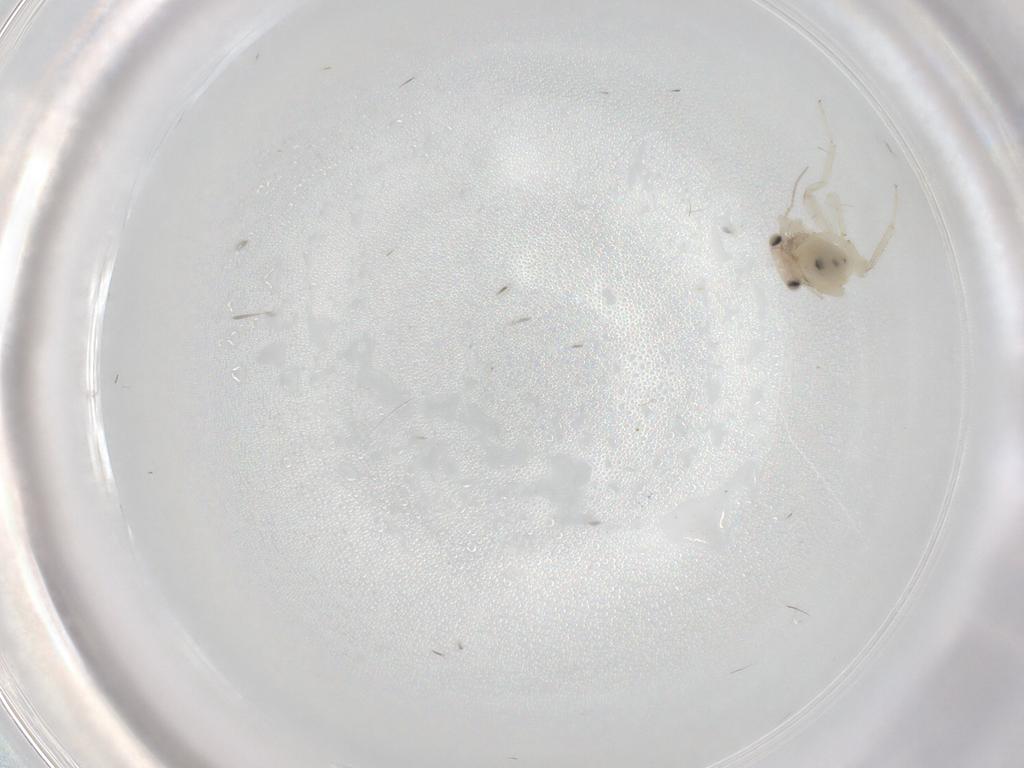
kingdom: Animalia
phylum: Arthropoda
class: Insecta
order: Psocodea
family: Lepidopsocidae
